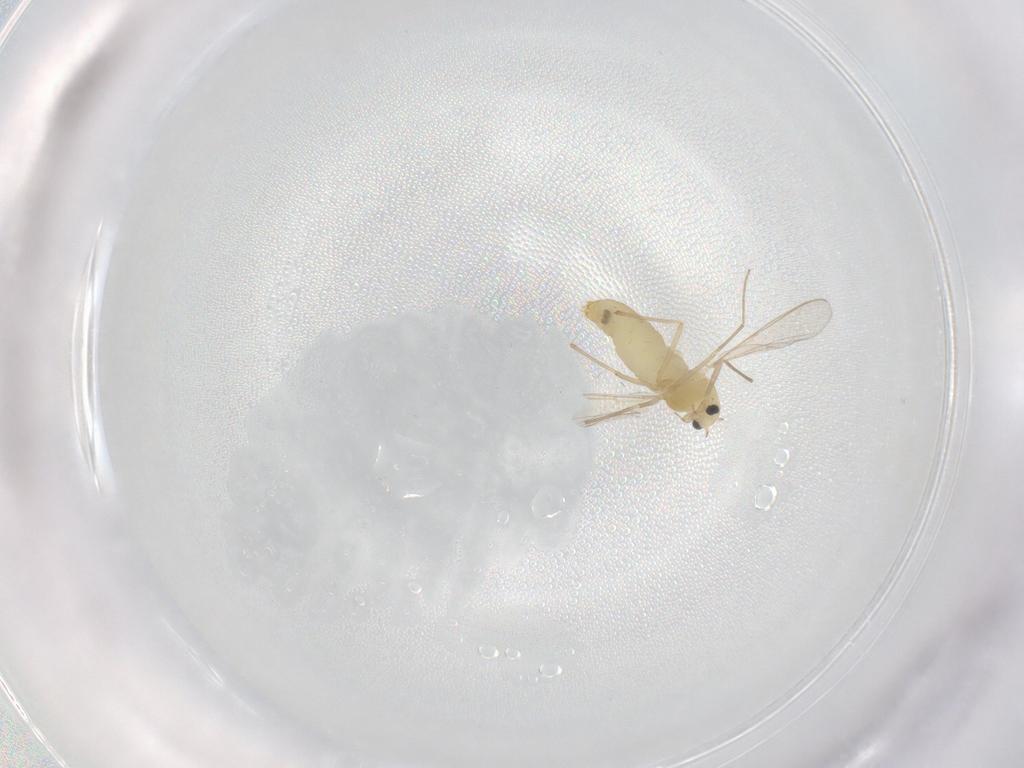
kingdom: Animalia
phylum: Arthropoda
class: Insecta
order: Diptera
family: Chironomidae
